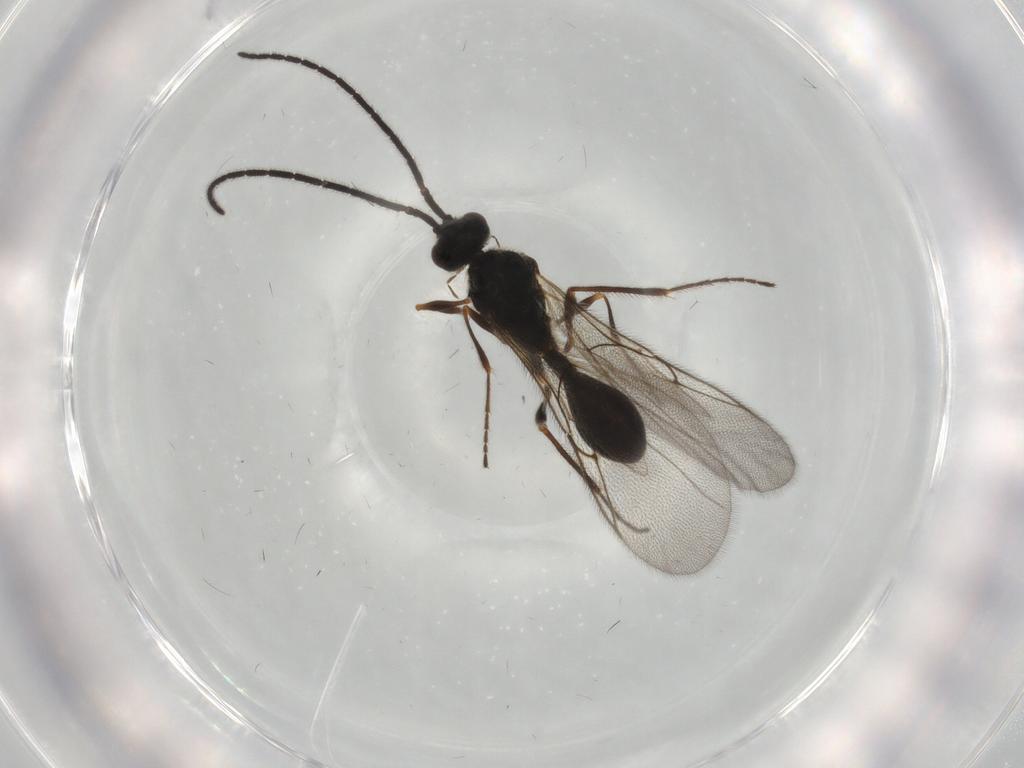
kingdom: Animalia
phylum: Arthropoda
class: Insecta
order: Hymenoptera
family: Diapriidae
